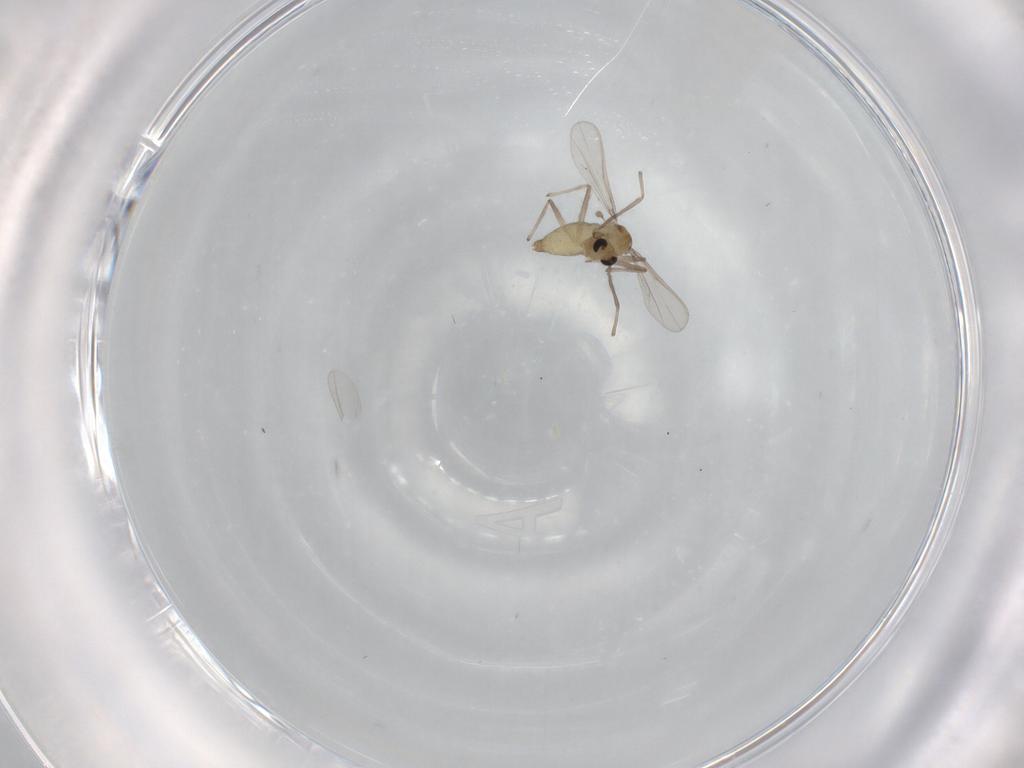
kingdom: Animalia
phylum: Arthropoda
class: Insecta
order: Diptera
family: Chironomidae
